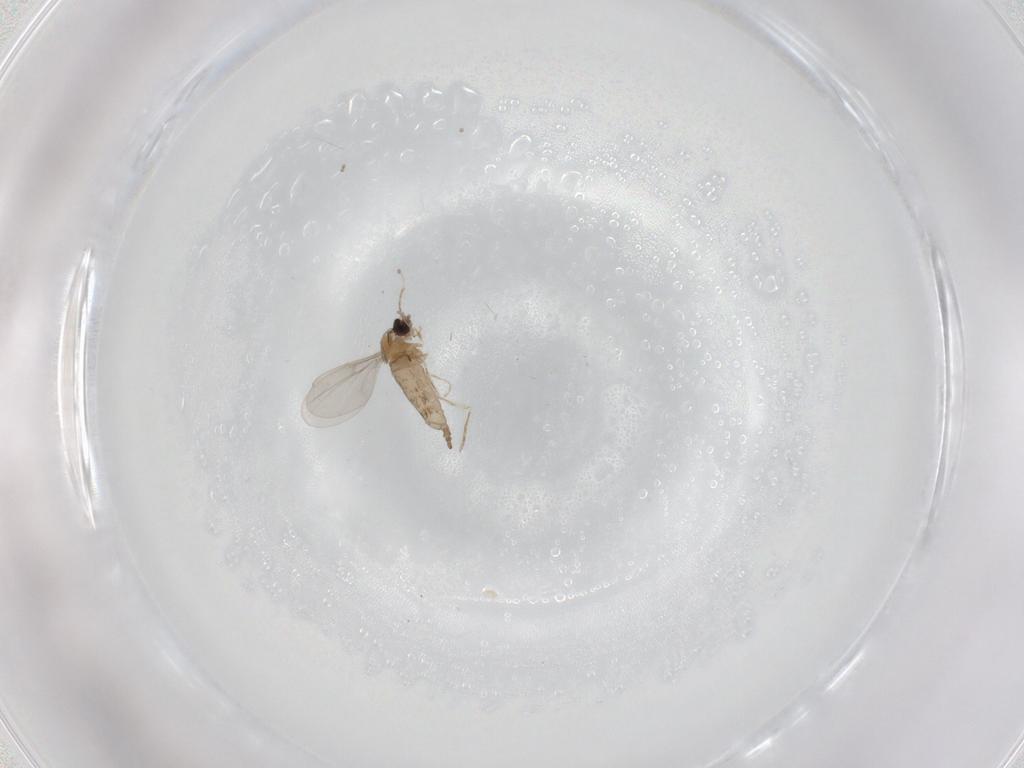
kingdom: Animalia
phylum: Arthropoda
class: Insecta
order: Diptera
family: Cecidomyiidae
